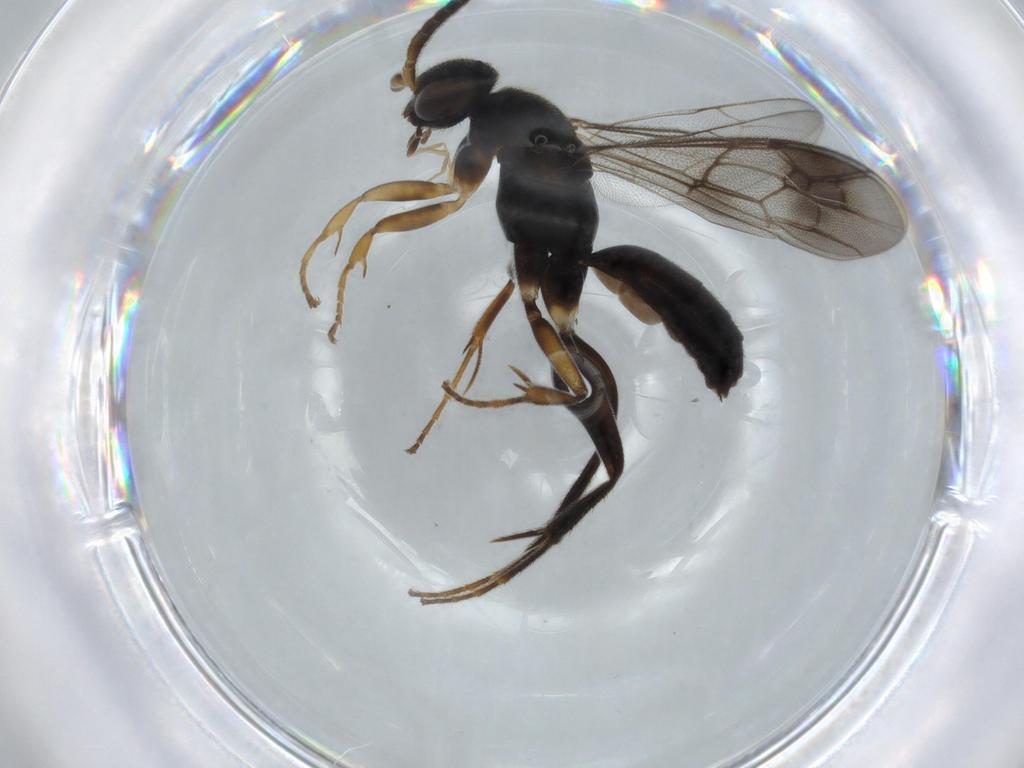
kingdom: Animalia
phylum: Arthropoda
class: Insecta
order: Hymenoptera
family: Pompilidae
